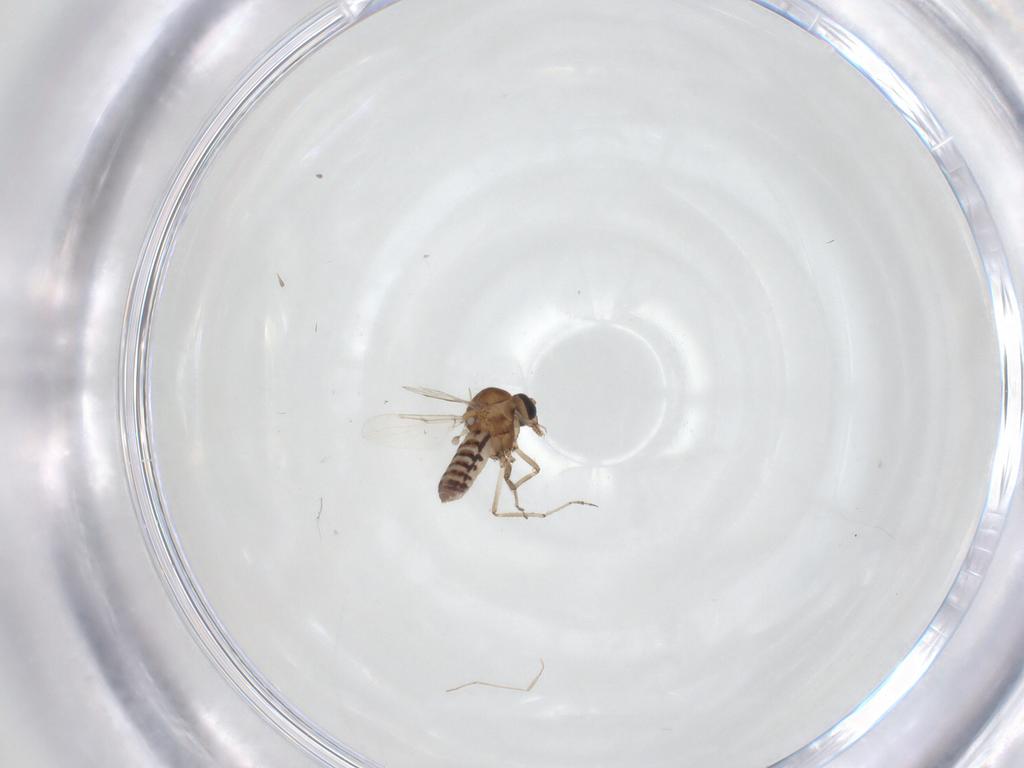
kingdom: Animalia
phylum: Arthropoda
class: Insecta
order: Diptera
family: Ceratopogonidae
